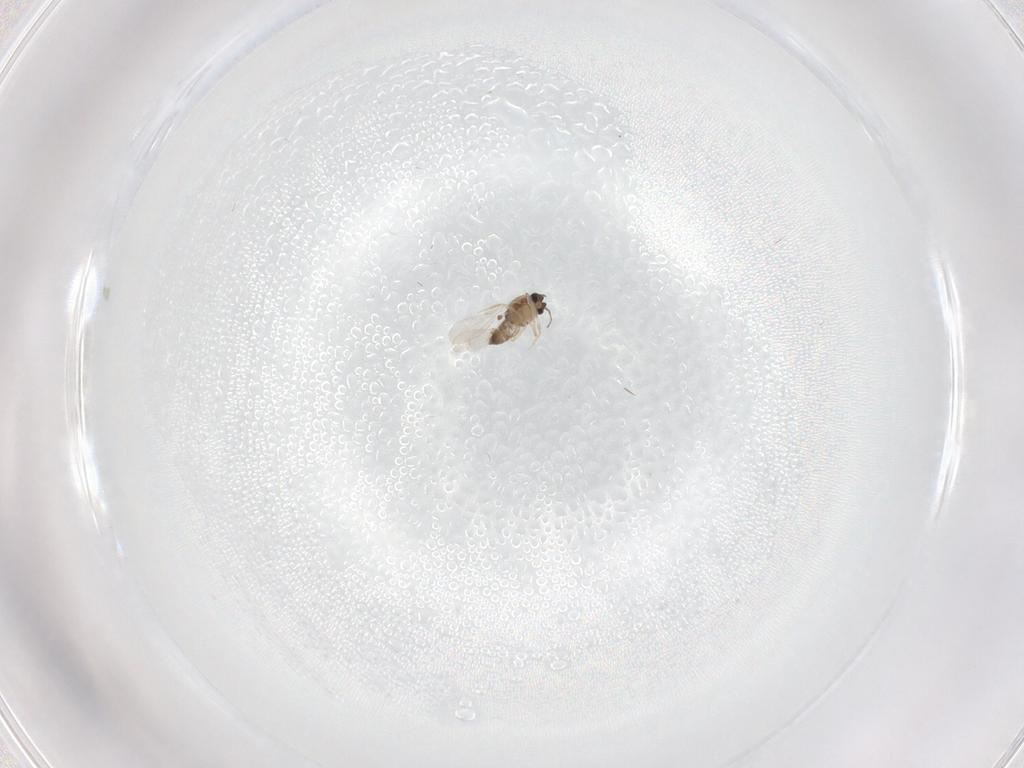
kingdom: Animalia
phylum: Arthropoda
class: Insecta
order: Diptera
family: Ceratopogonidae
